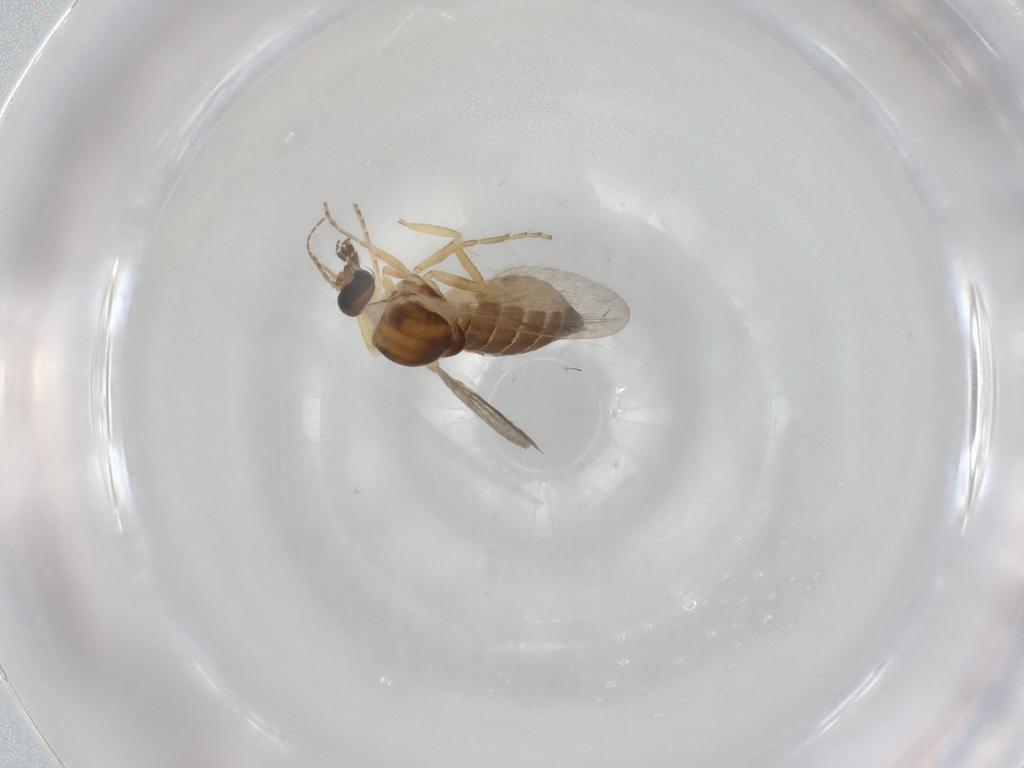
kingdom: Animalia
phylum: Arthropoda
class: Insecta
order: Diptera
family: Ceratopogonidae
